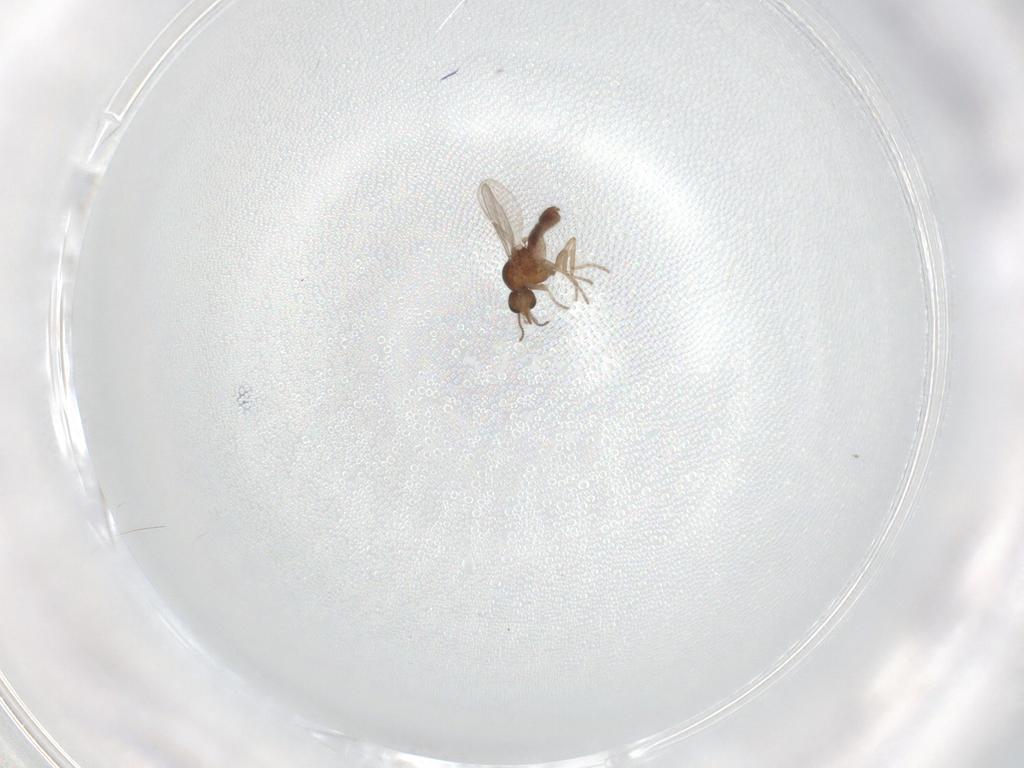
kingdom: Animalia
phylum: Arthropoda
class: Insecta
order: Diptera
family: Ceratopogonidae
